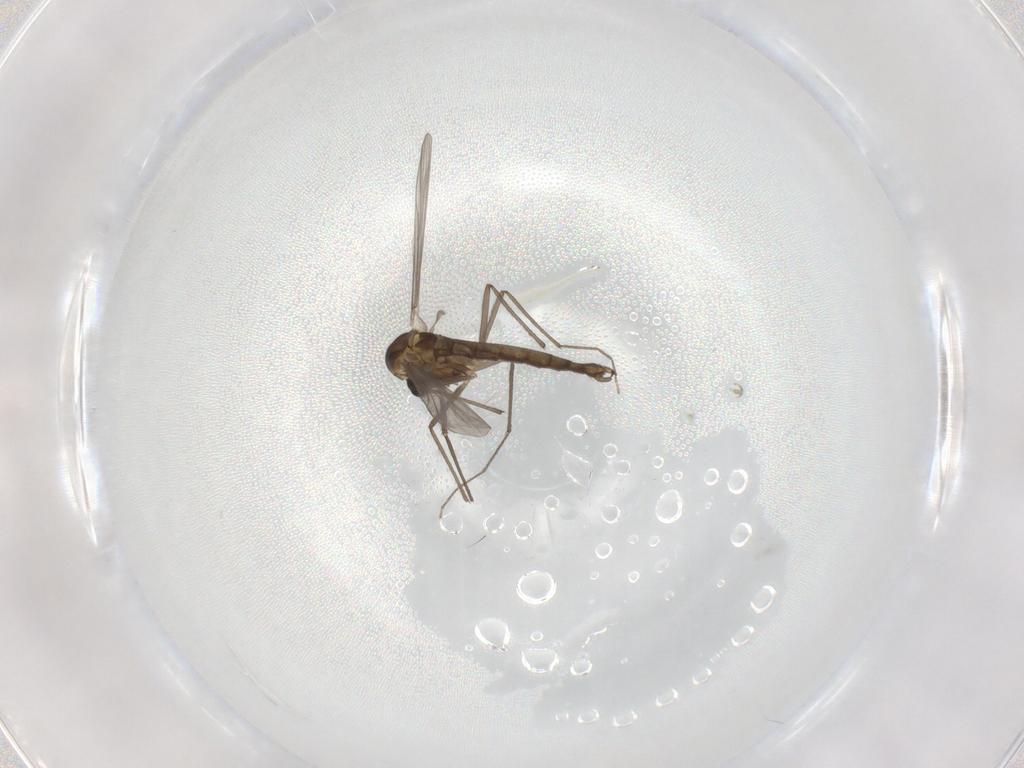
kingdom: Animalia
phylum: Arthropoda
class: Insecta
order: Diptera
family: Chironomidae
